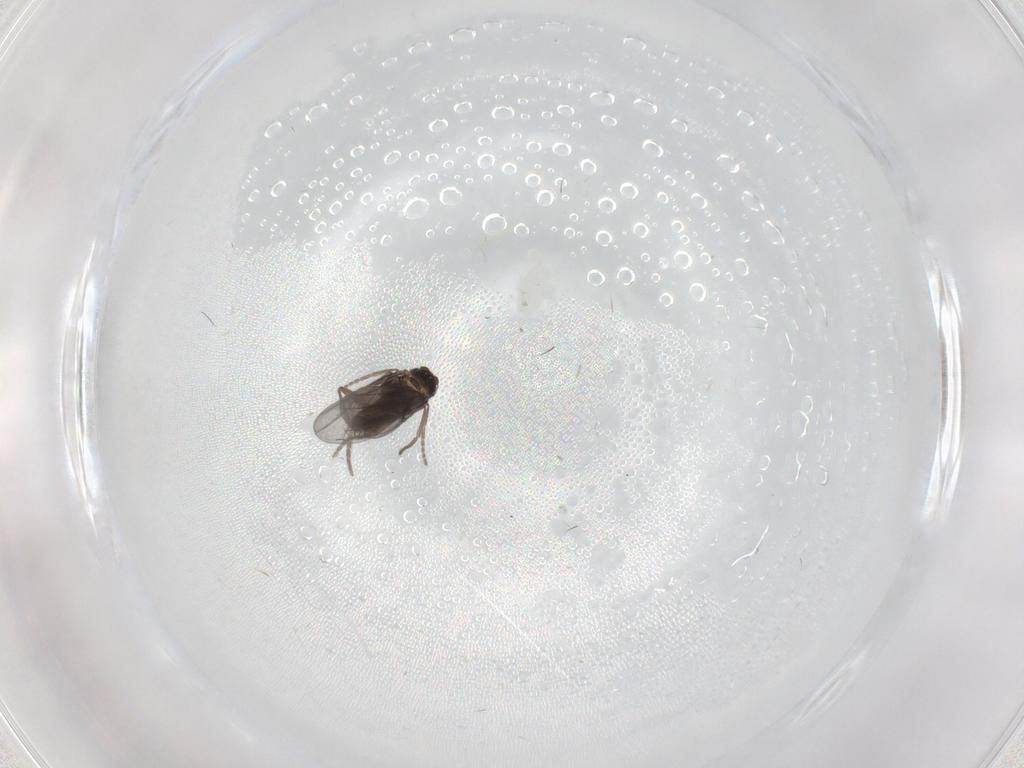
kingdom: Animalia
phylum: Arthropoda
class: Insecta
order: Diptera
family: Phoridae
